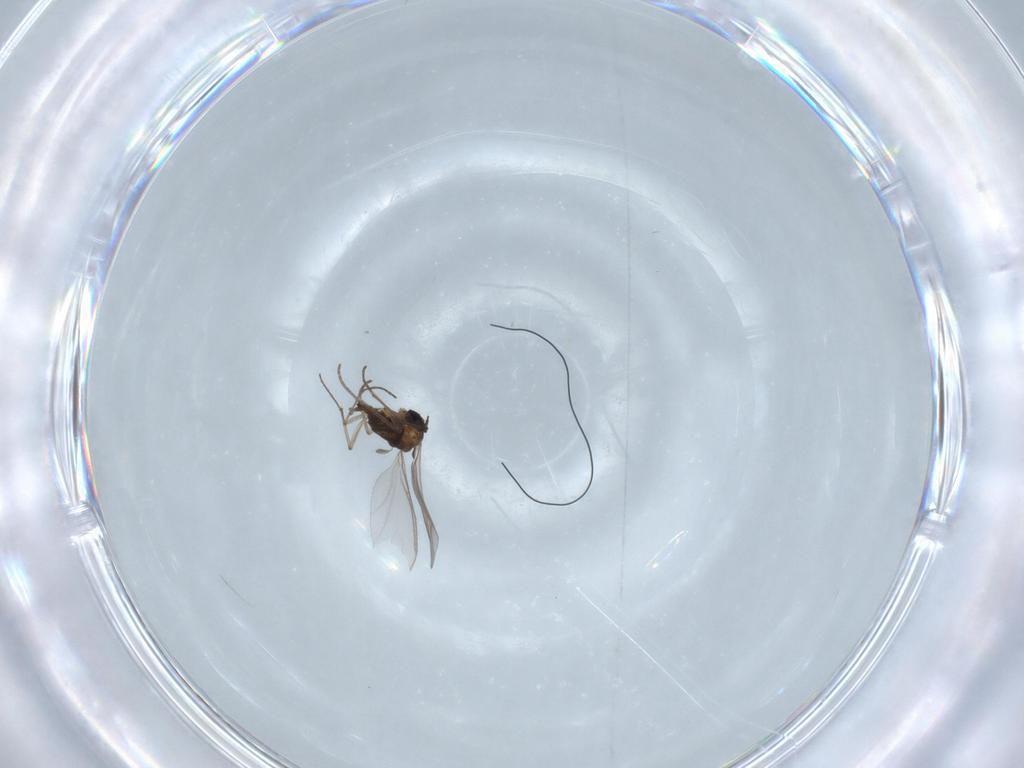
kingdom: Animalia
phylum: Arthropoda
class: Insecta
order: Diptera
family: Sciaridae
